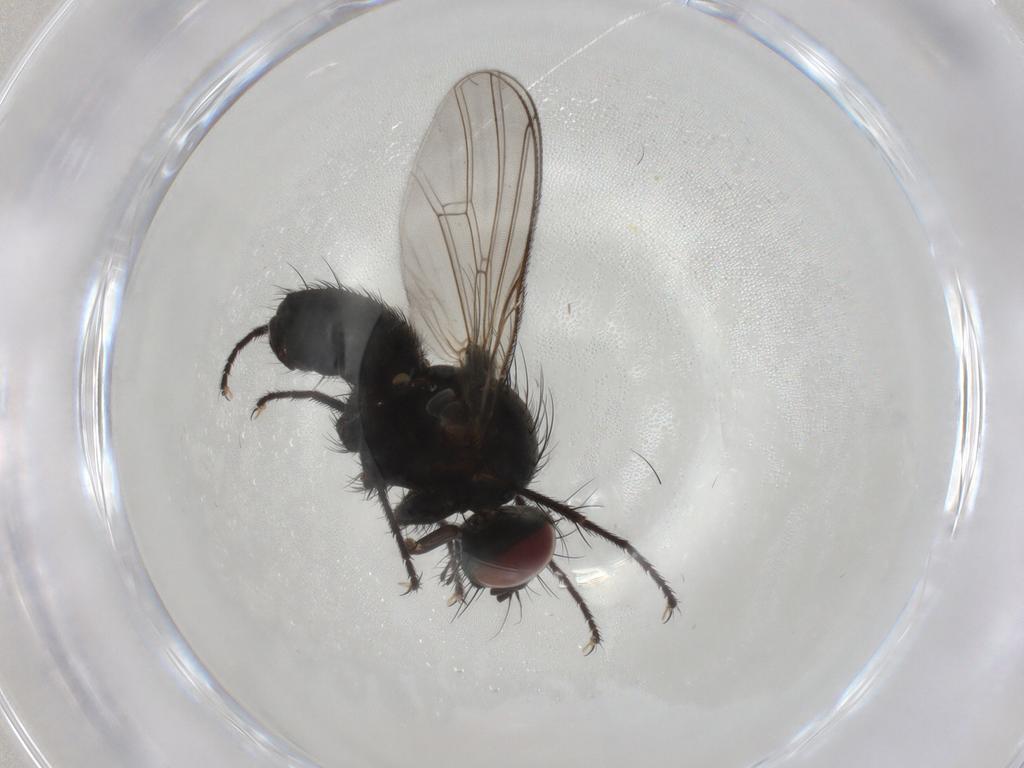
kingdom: Animalia
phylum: Arthropoda
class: Insecta
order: Diptera
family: Muscidae
